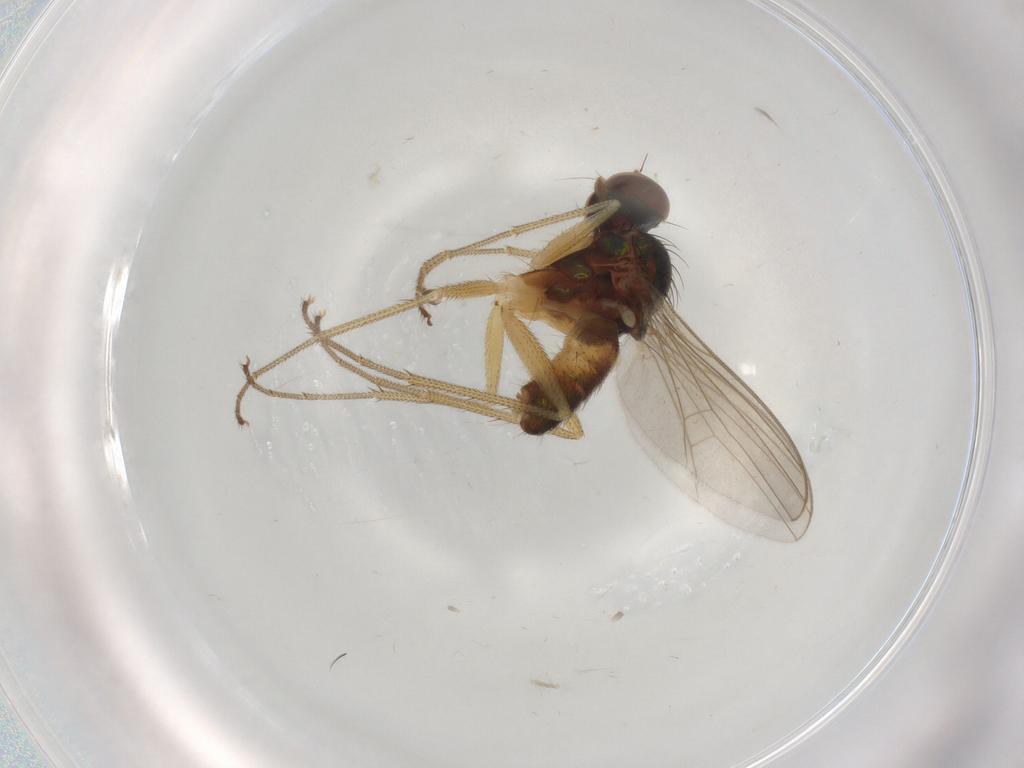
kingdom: Animalia
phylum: Arthropoda
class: Insecta
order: Diptera
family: Dolichopodidae
